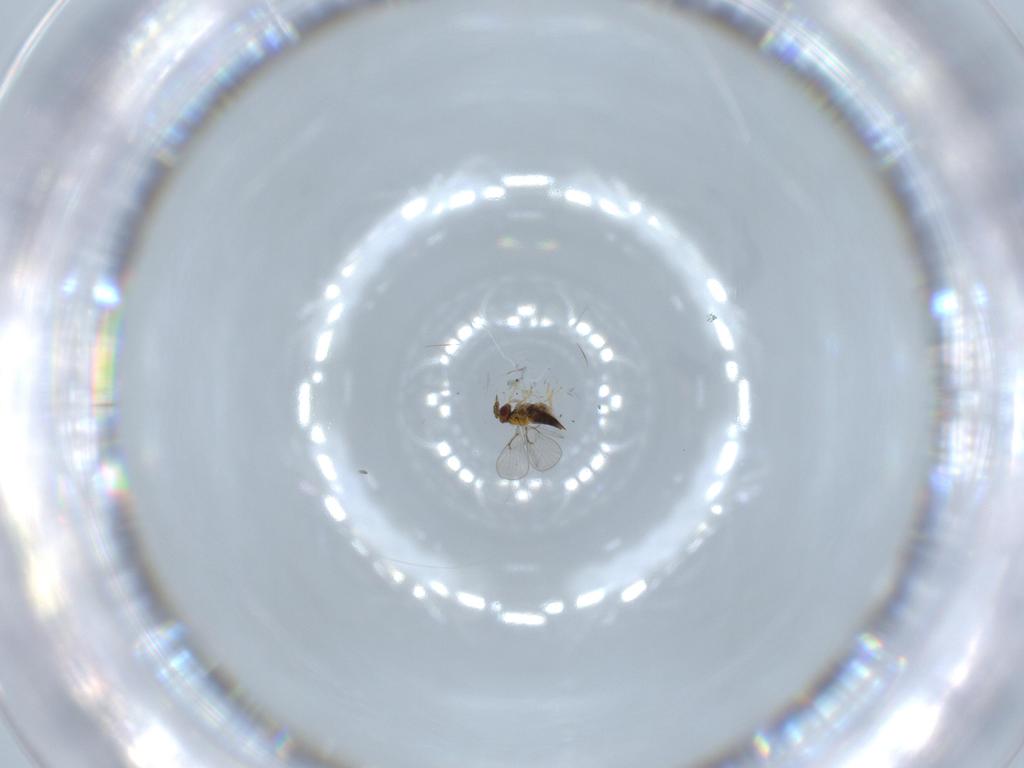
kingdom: Animalia
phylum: Arthropoda
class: Insecta
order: Hymenoptera
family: Trichogrammatidae
